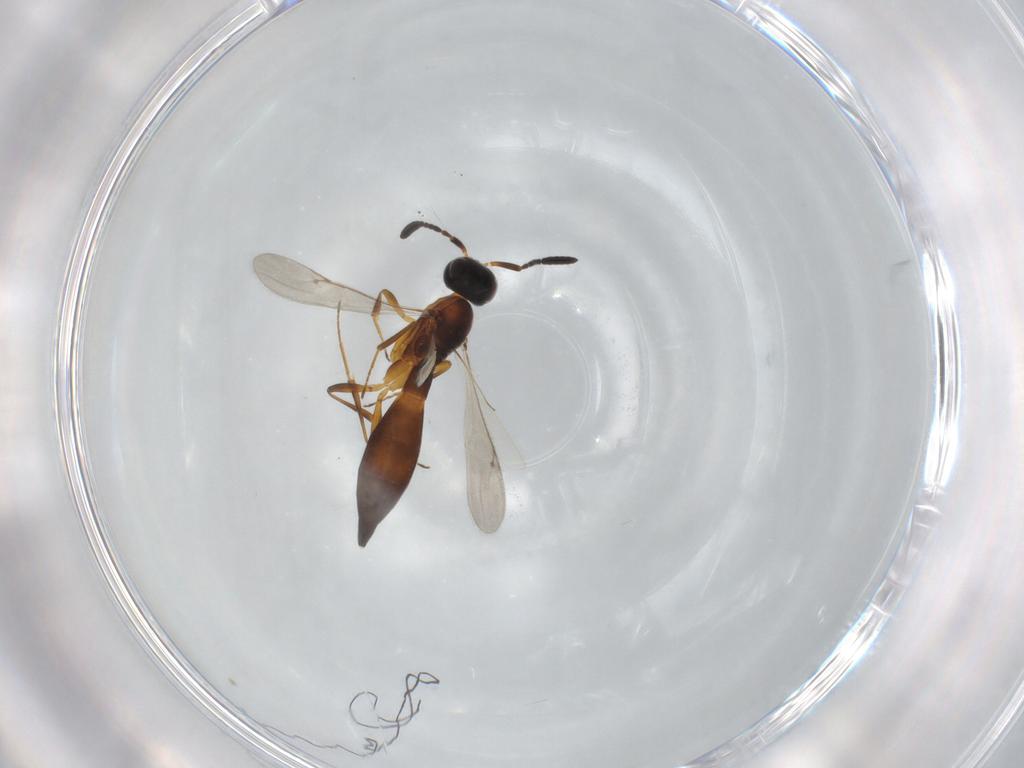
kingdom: Animalia
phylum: Arthropoda
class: Insecta
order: Hymenoptera
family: Scelionidae
